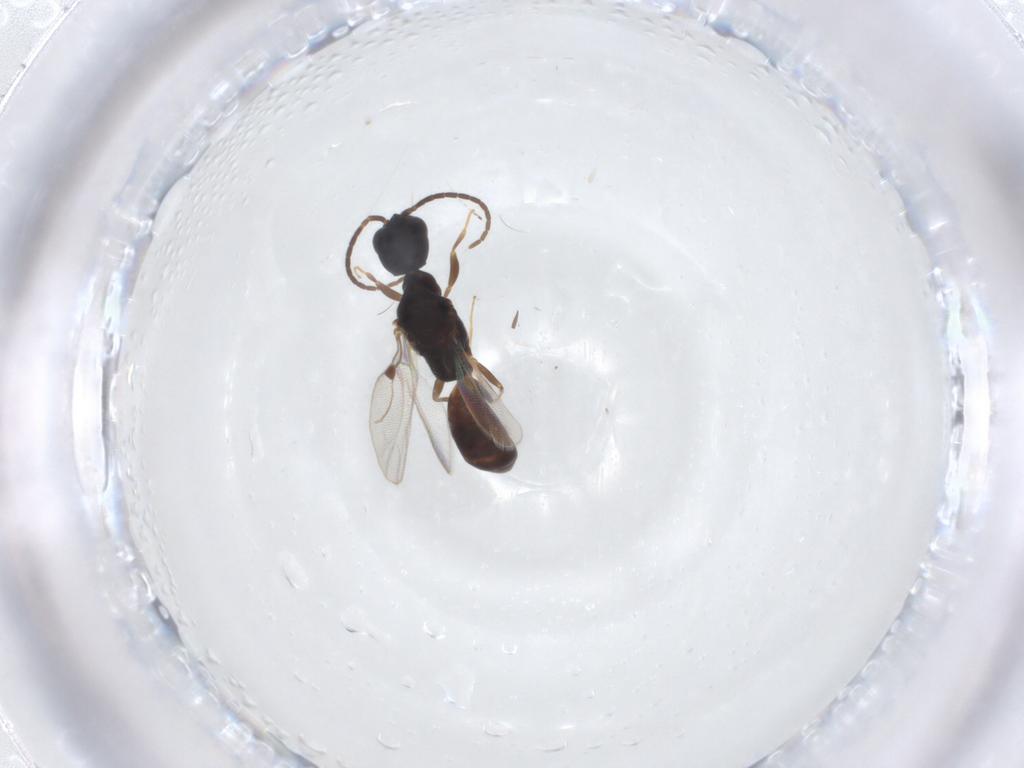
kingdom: Animalia
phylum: Arthropoda
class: Insecta
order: Hymenoptera
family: Bethylidae
